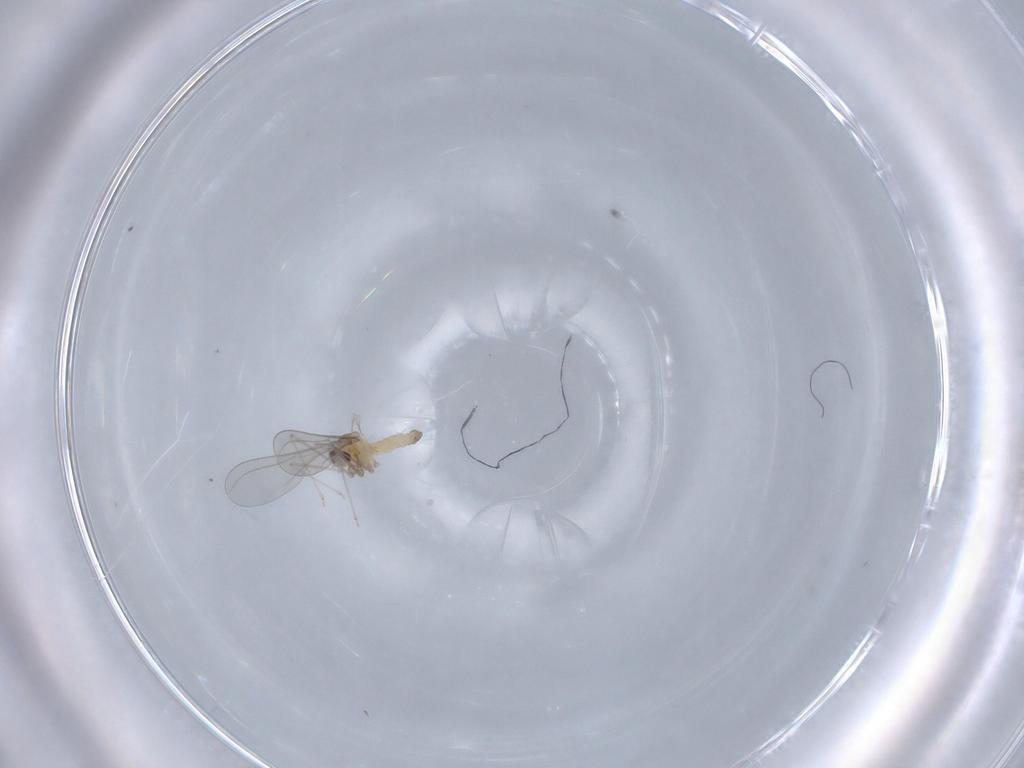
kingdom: Animalia
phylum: Arthropoda
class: Insecta
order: Diptera
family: Cecidomyiidae
